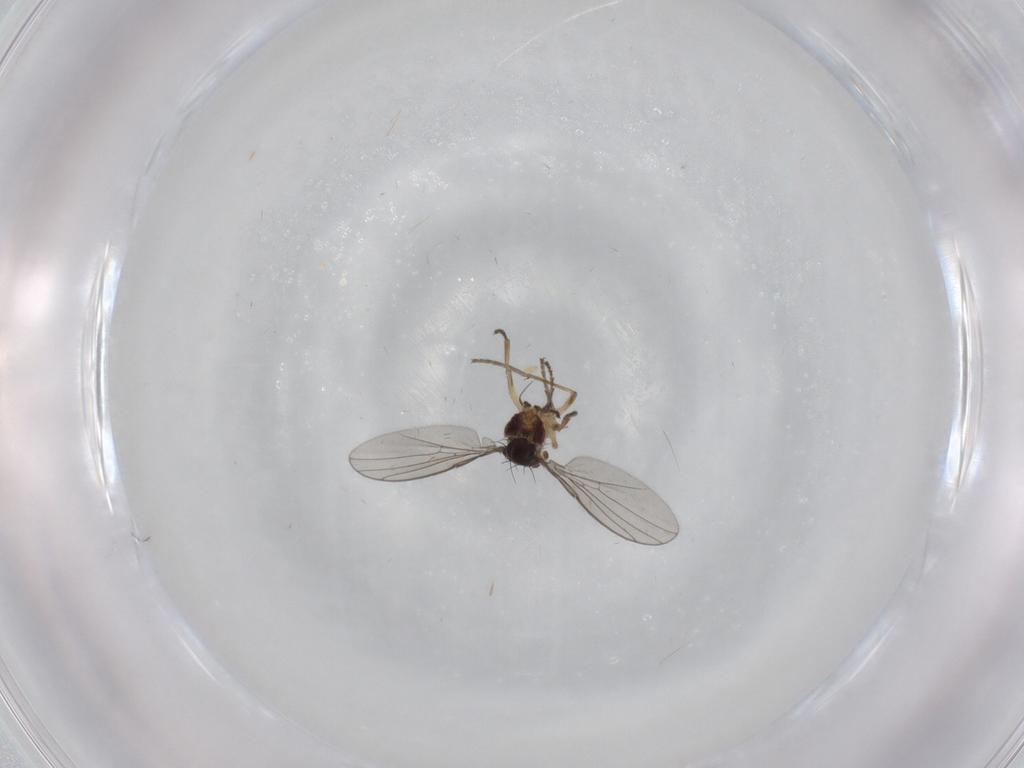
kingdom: Animalia
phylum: Arthropoda
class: Insecta
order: Diptera
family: Agromyzidae
